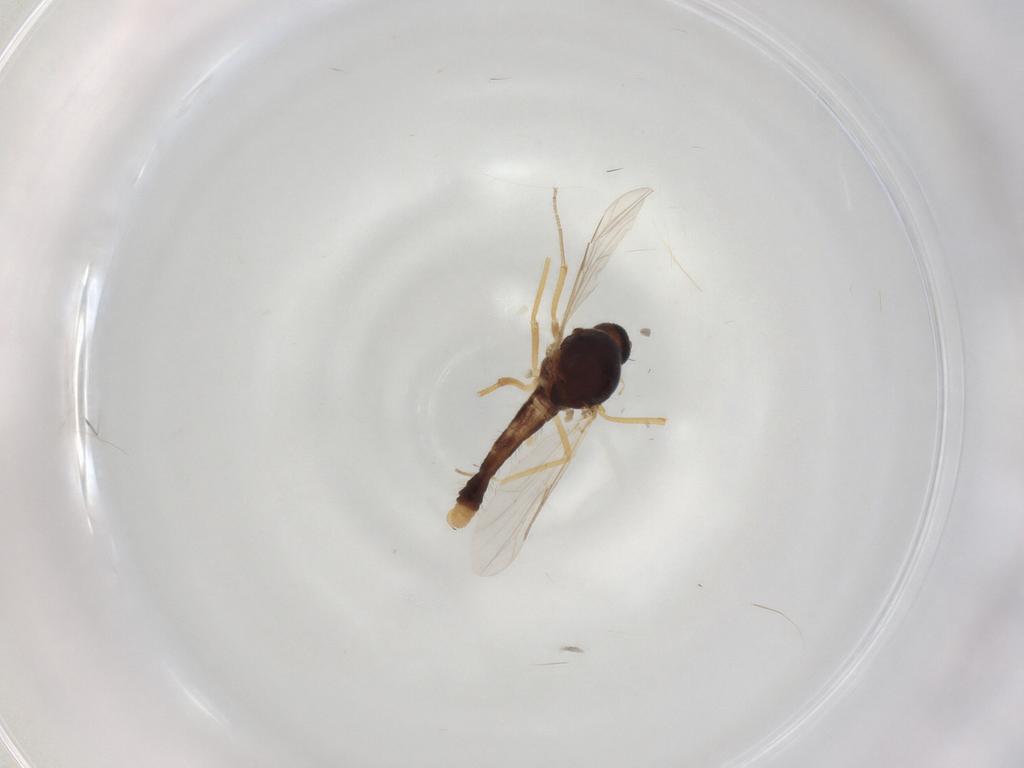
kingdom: Animalia
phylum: Arthropoda
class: Insecta
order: Diptera
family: Ceratopogonidae
